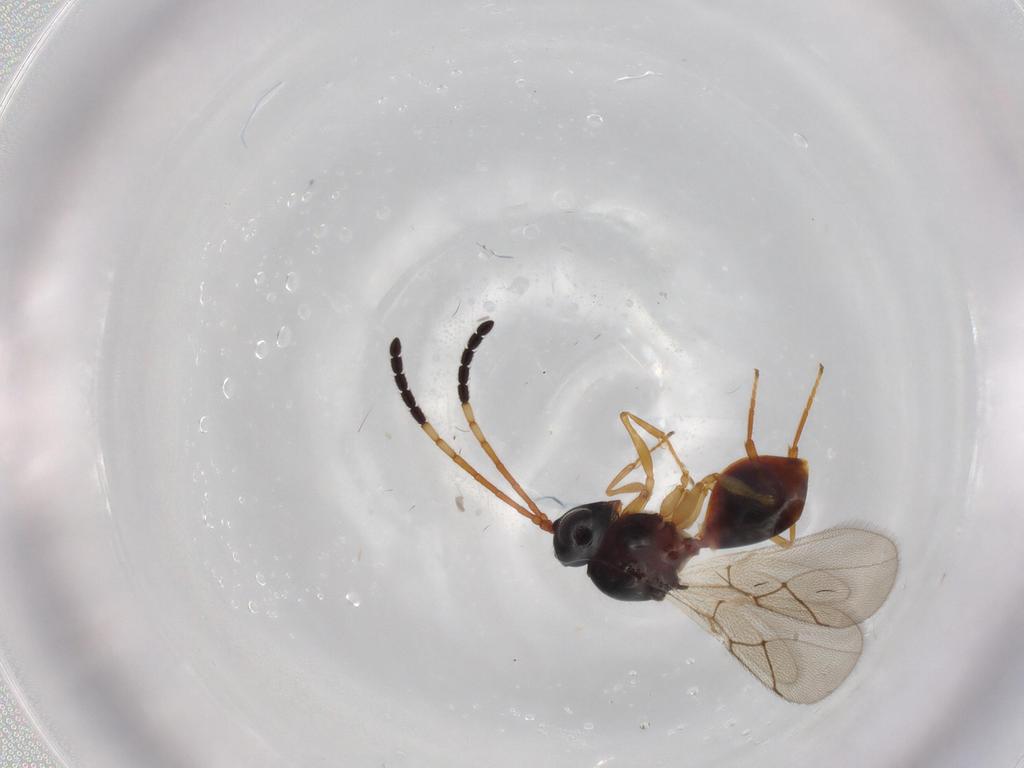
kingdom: Animalia
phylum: Arthropoda
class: Insecta
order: Hymenoptera
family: Figitidae
